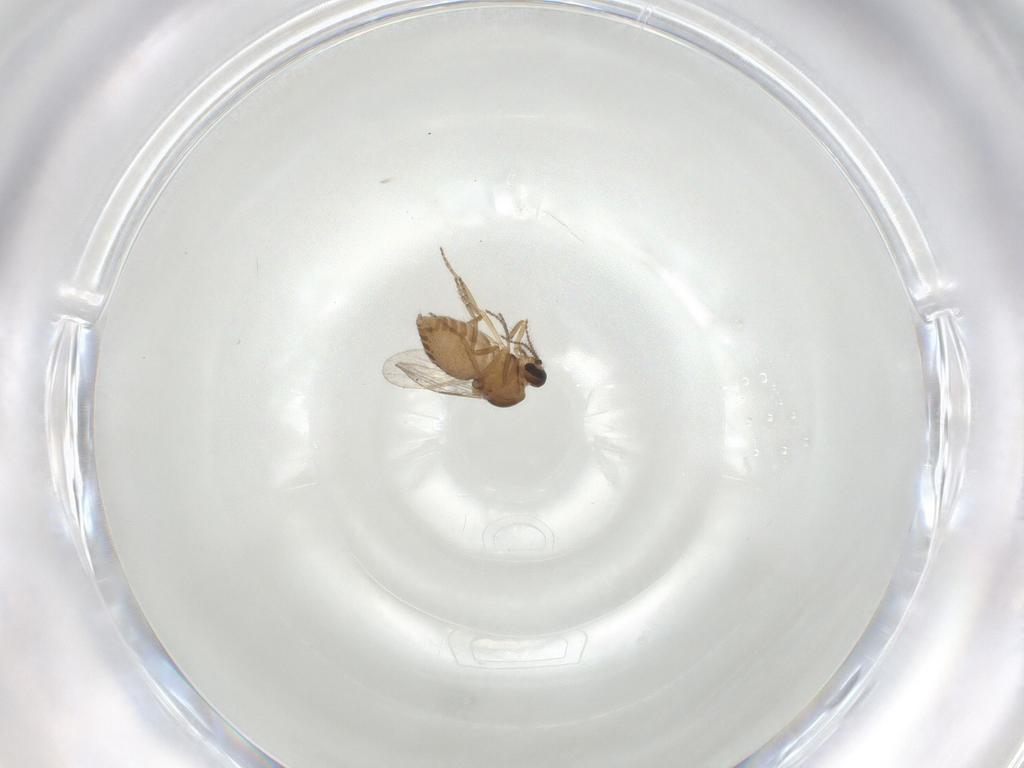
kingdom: Animalia
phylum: Arthropoda
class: Insecta
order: Diptera
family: Ceratopogonidae
